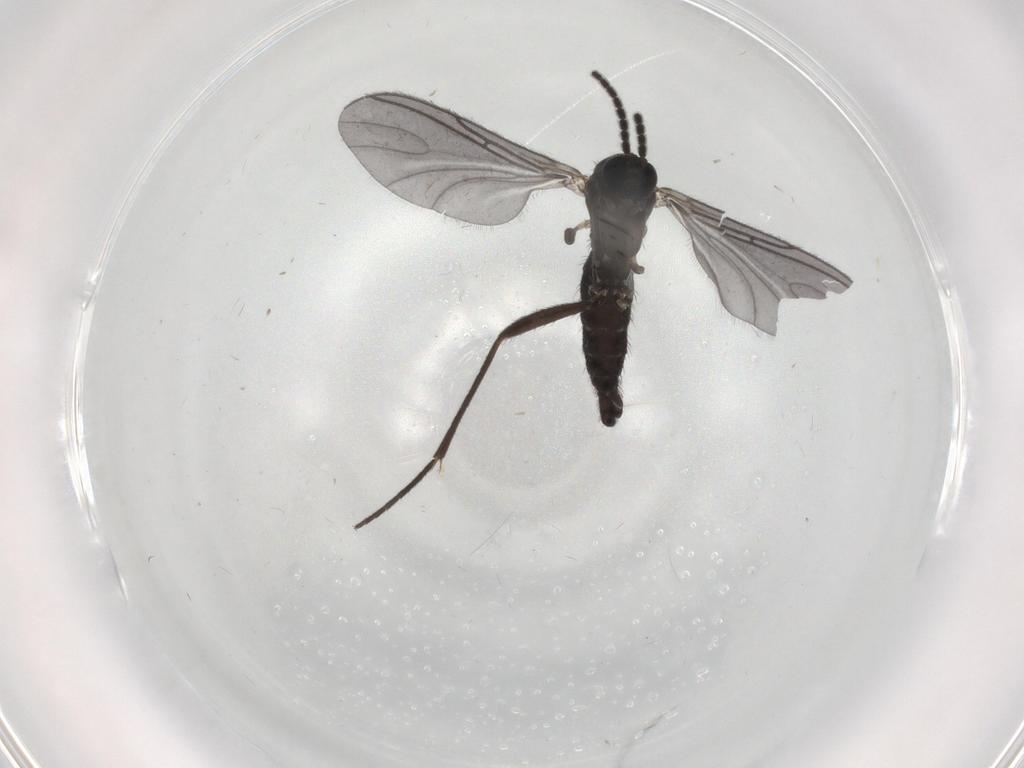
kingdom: Animalia
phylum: Arthropoda
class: Insecta
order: Diptera
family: Sciaridae
